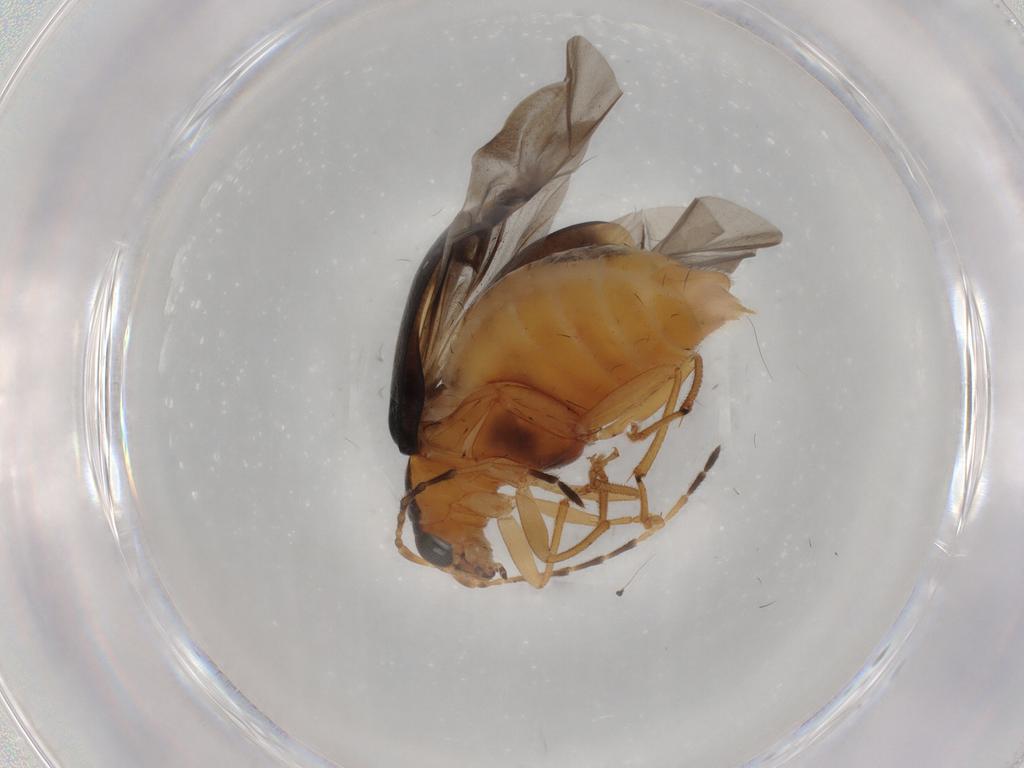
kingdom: Animalia
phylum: Arthropoda
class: Insecta
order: Coleoptera
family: Chrysomelidae
